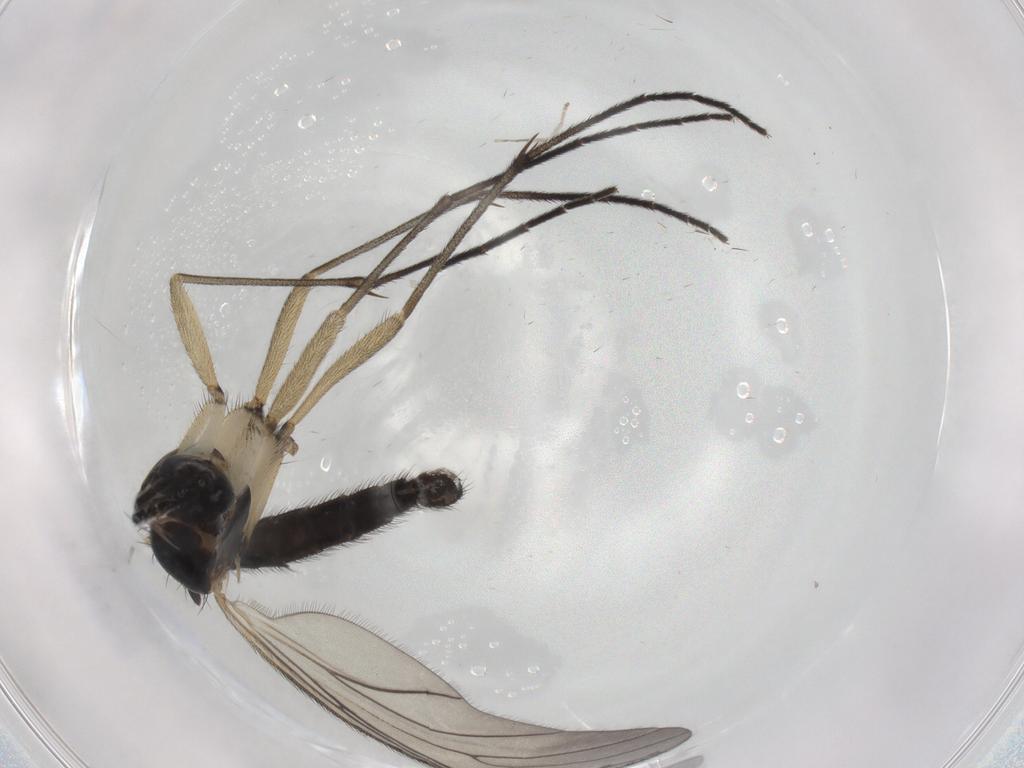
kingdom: Animalia
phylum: Arthropoda
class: Insecta
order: Diptera
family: Sciaridae
